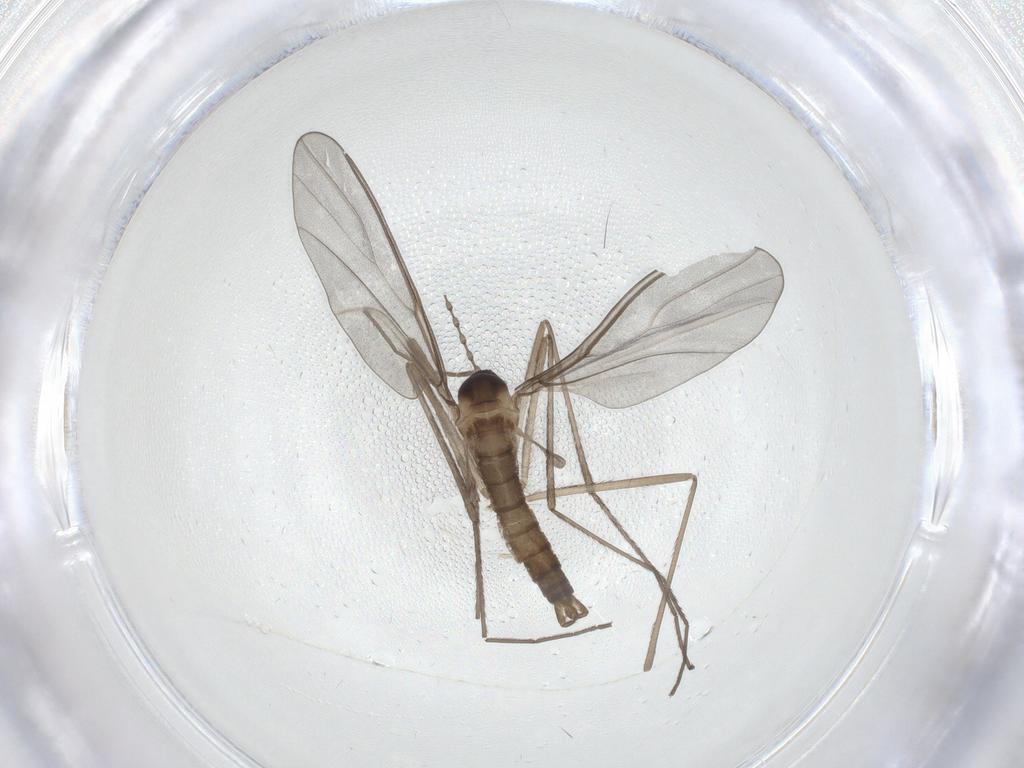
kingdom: Animalia
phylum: Arthropoda
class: Insecta
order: Diptera
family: Cecidomyiidae
